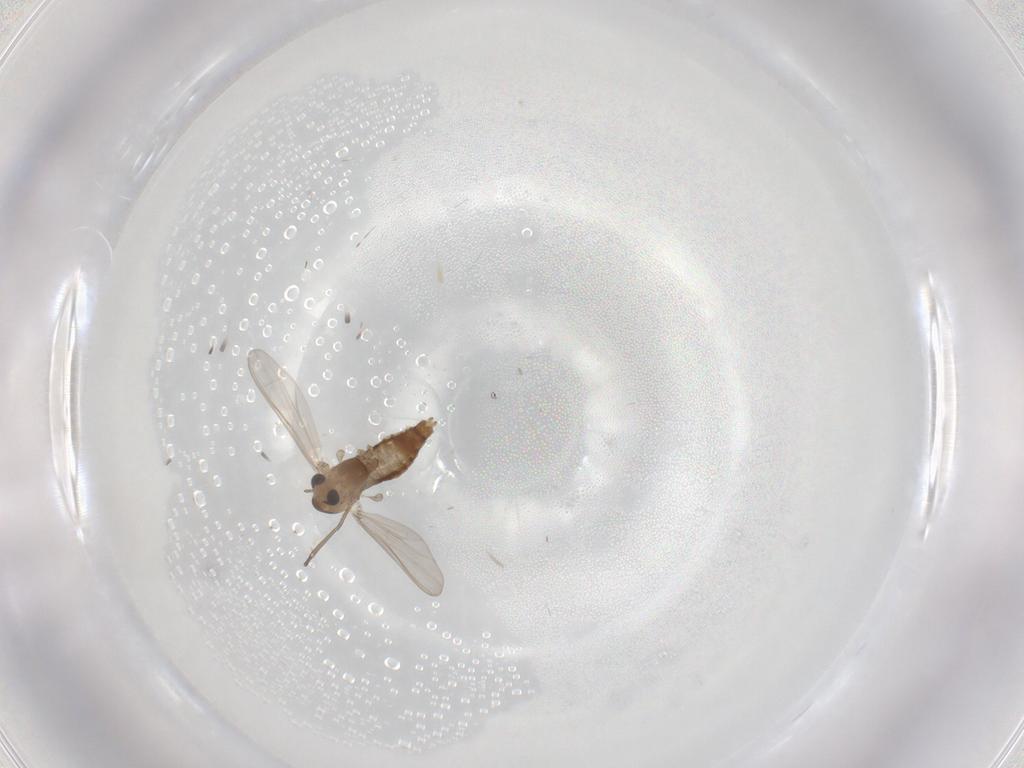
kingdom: Animalia
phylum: Arthropoda
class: Insecta
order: Diptera
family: Chironomidae
